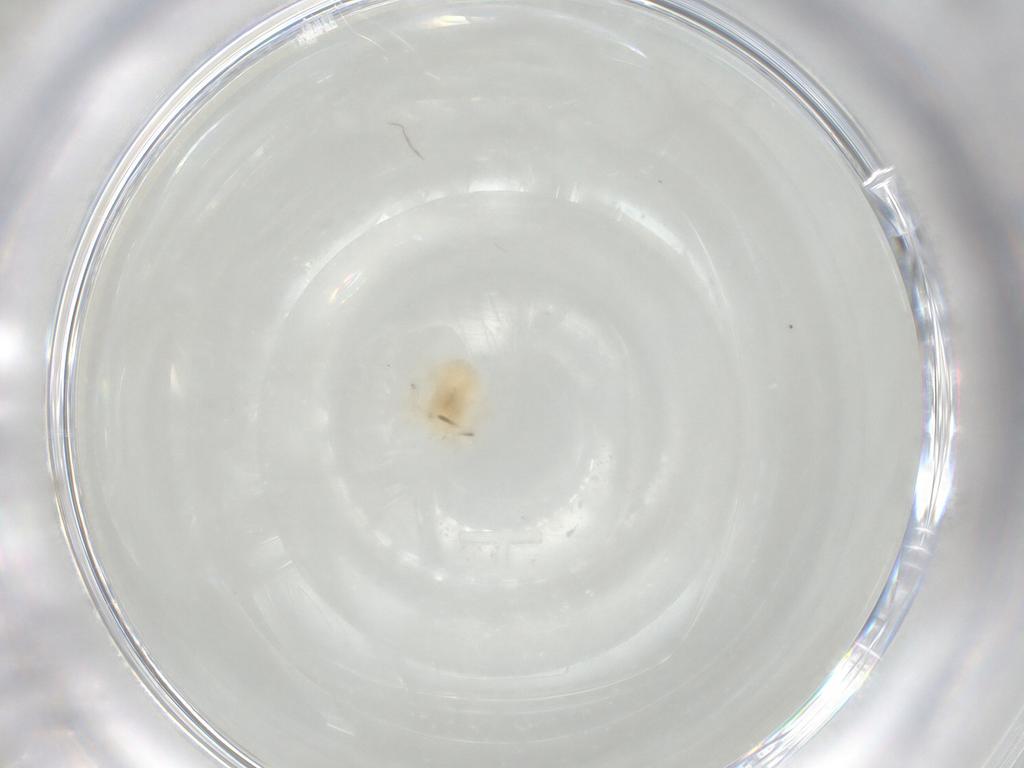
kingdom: Animalia
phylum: Arthropoda
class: Arachnida
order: Trombidiformes
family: Anystidae
